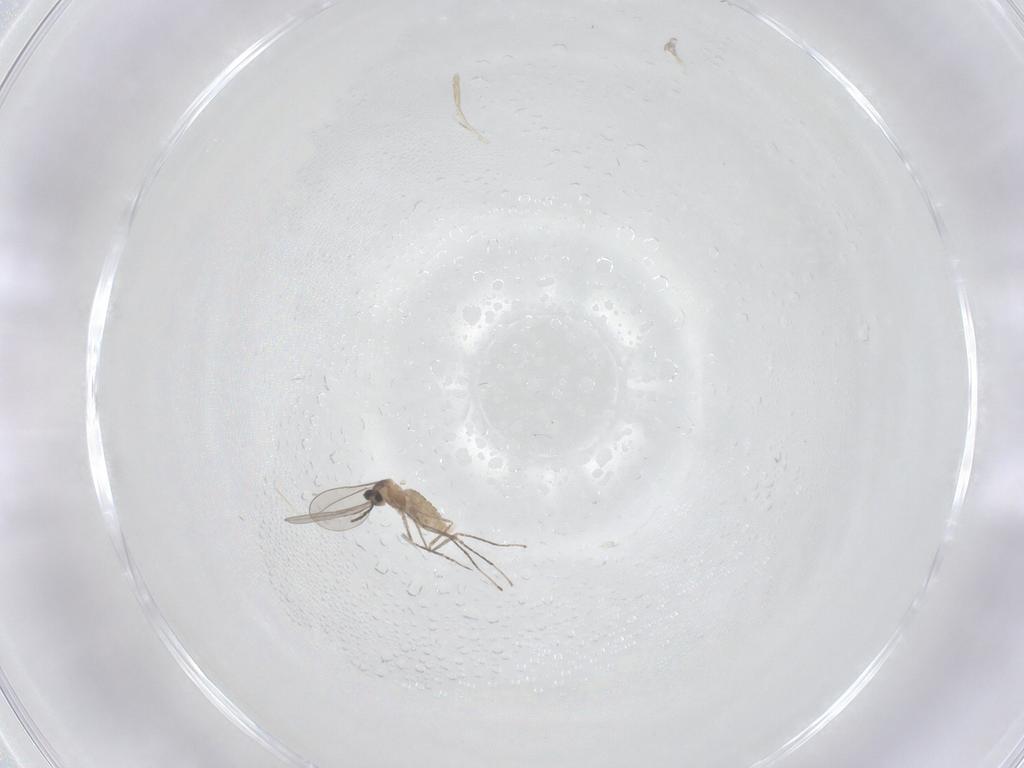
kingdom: Animalia
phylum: Arthropoda
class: Insecta
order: Diptera
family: Cecidomyiidae
